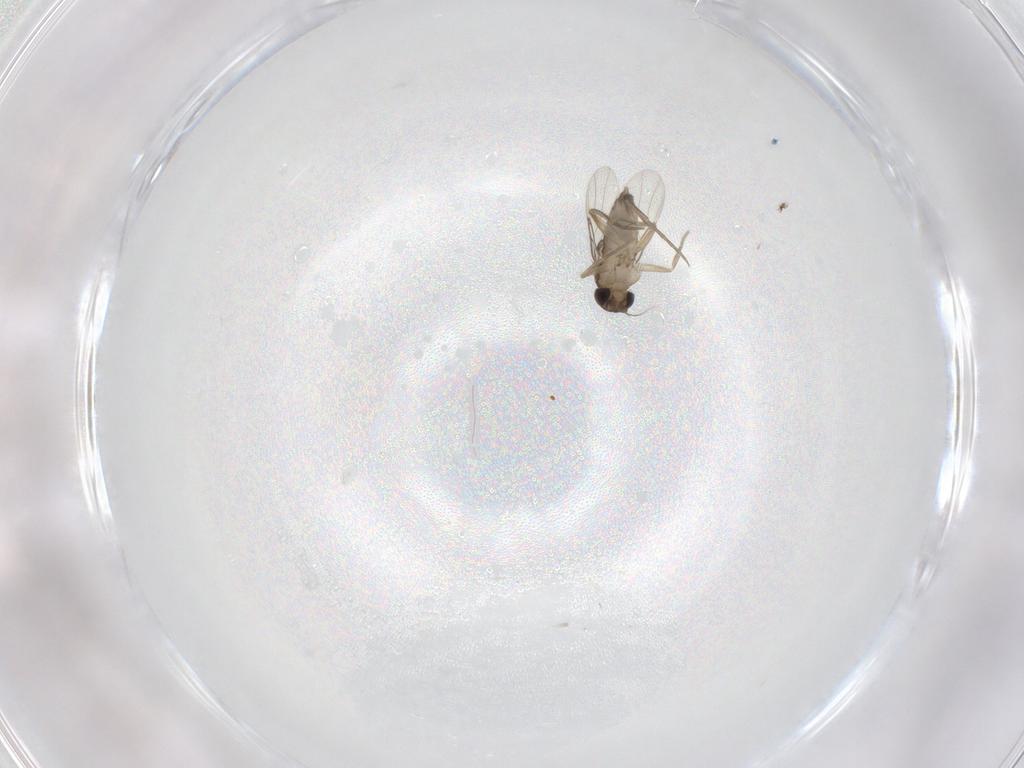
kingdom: Animalia
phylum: Arthropoda
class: Insecta
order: Diptera
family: Phoridae
